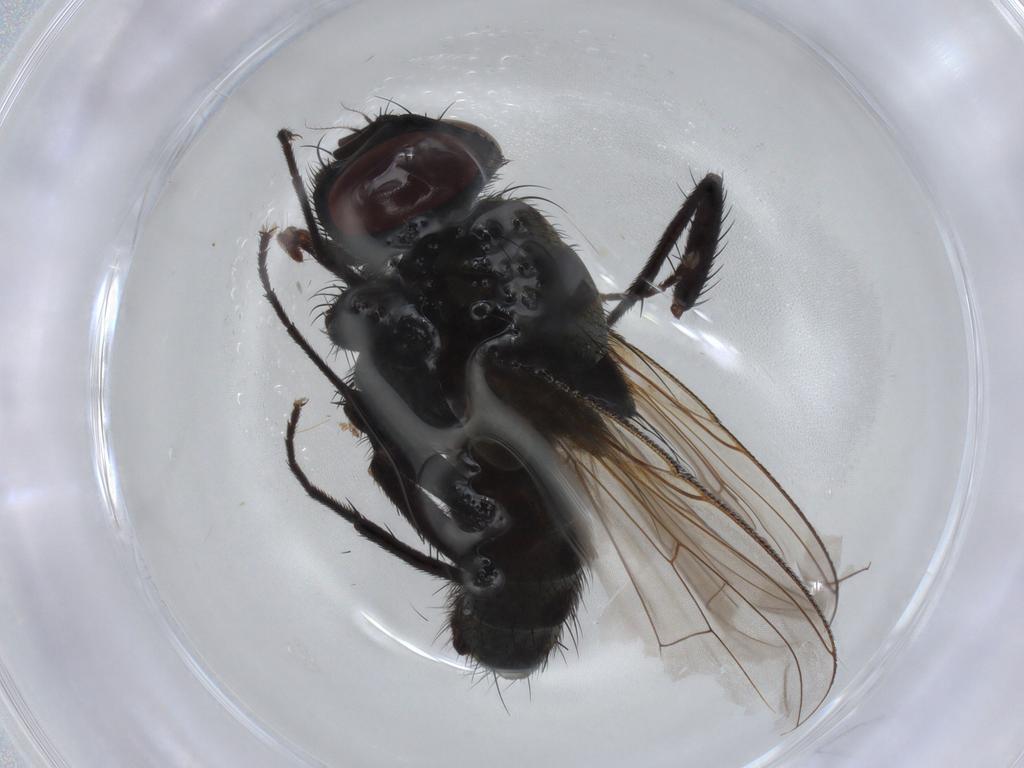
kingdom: Animalia
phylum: Arthropoda
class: Insecta
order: Diptera
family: Muscidae
